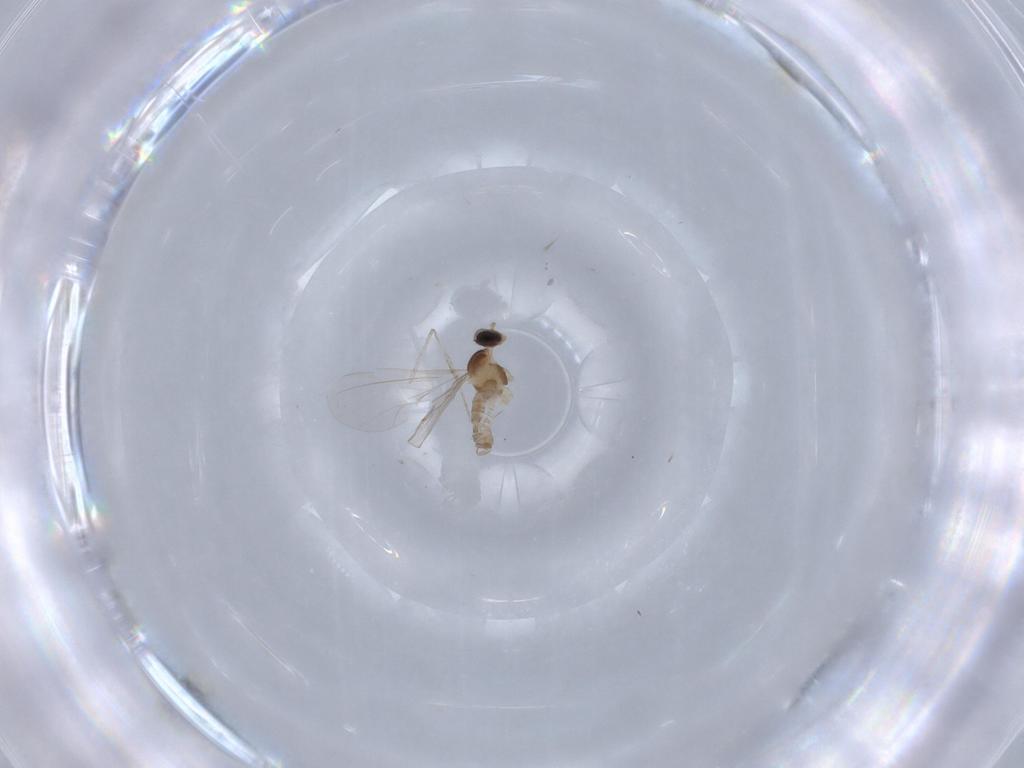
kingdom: Animalia
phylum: Arthropoda
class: Insecta
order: Diptera
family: Cecidomyiidae
